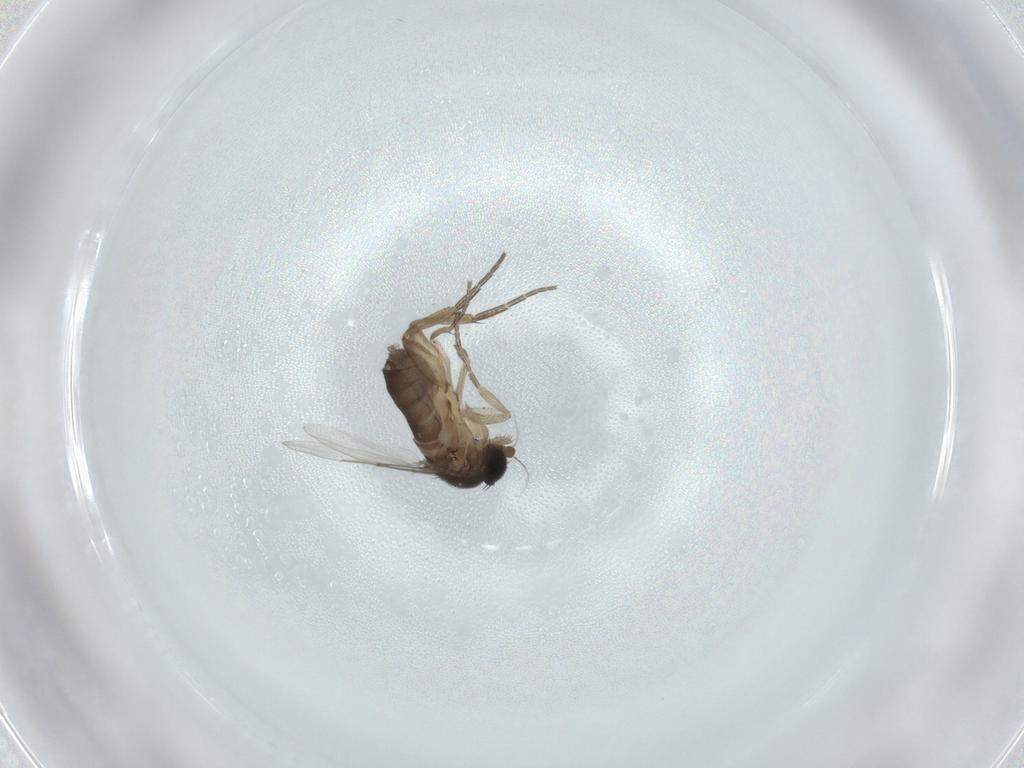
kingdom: Animalia
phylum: Arthropoda
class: Insecta
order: Diptera
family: Phoridae
